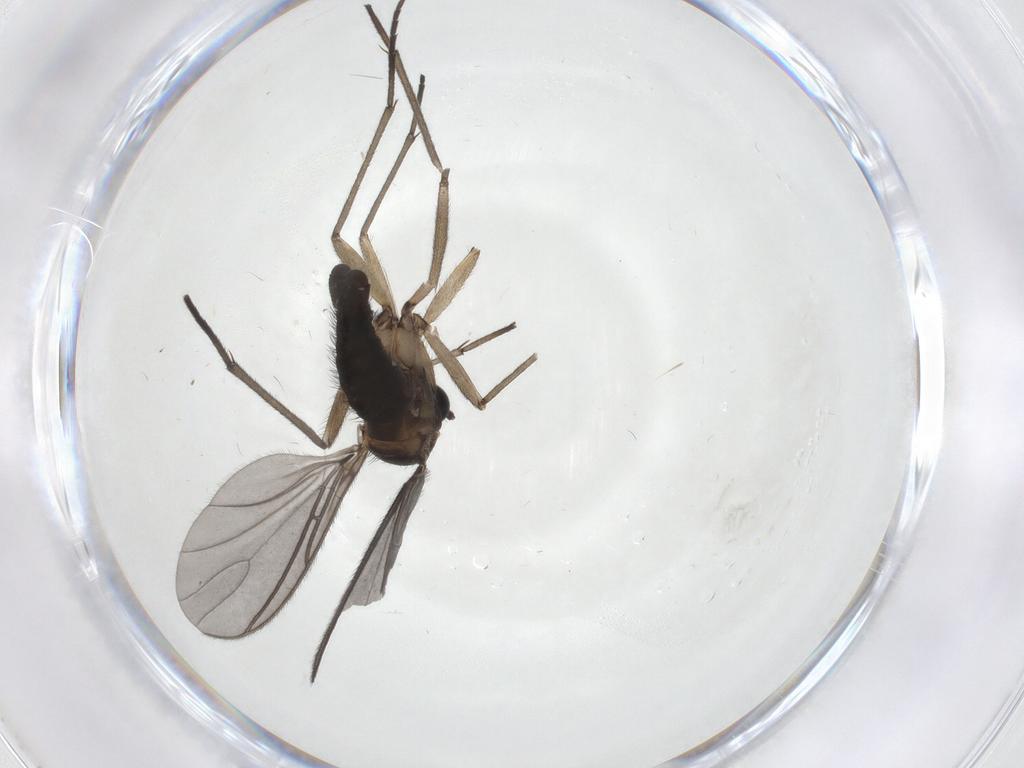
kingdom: Animalia
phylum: Arthropoda
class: Insecta
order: Diptera
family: Sciaridae
